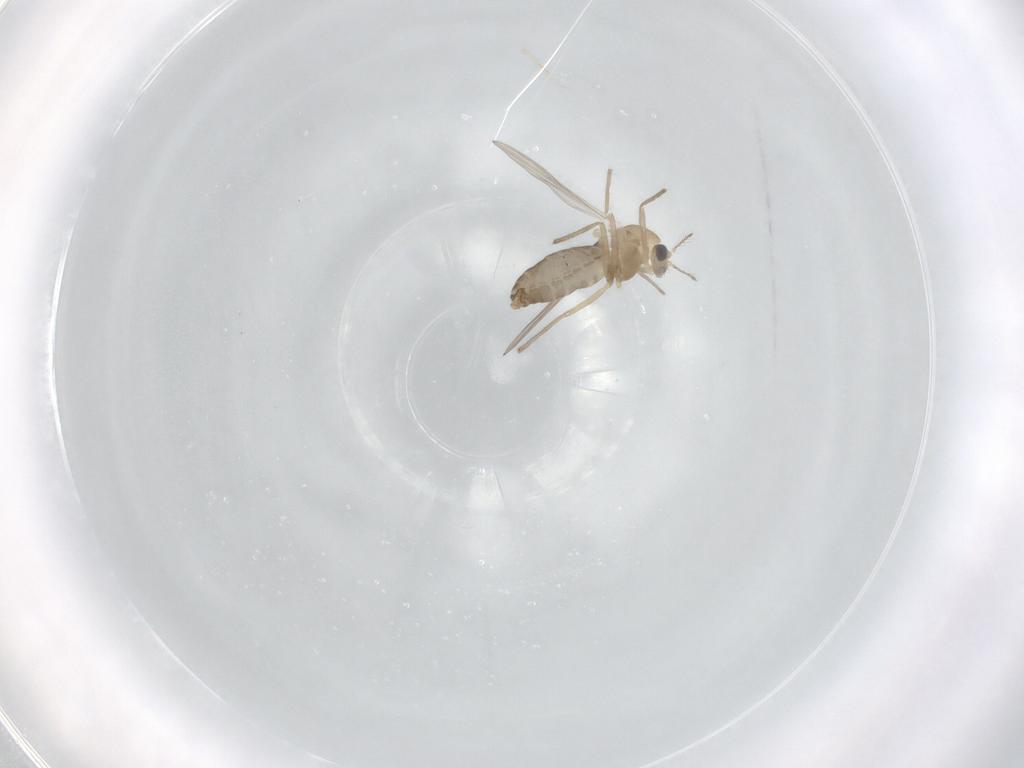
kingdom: Animalia
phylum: Arthropoda
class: Insecta
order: Diptera
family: Chironomidae
